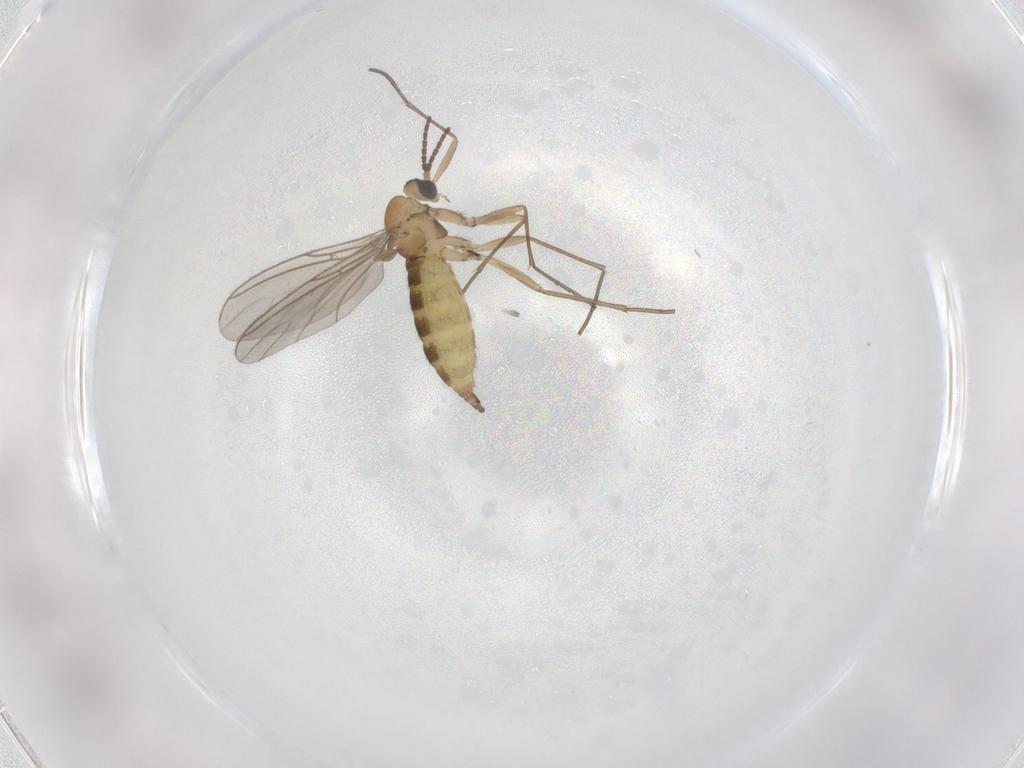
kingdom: Animalia
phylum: Arthropoda
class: Insecta
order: Diptera
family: Sciaridae
